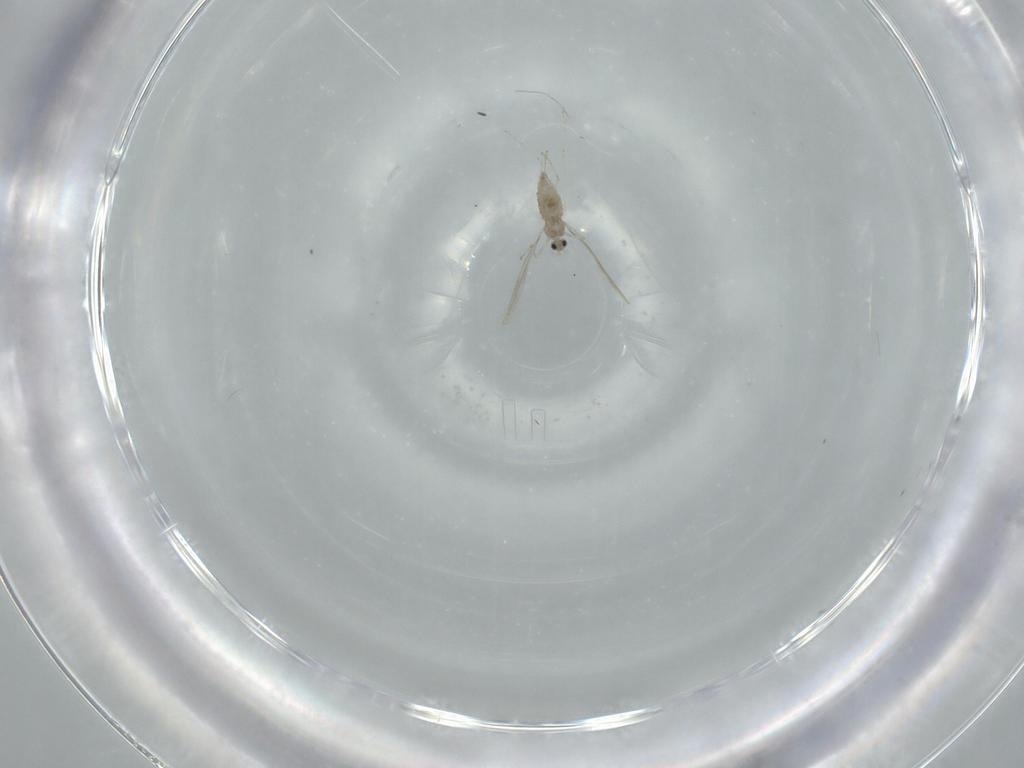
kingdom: Animalia
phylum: Arthropoda
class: Insecta
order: Diptera
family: Cecidomyiidae
